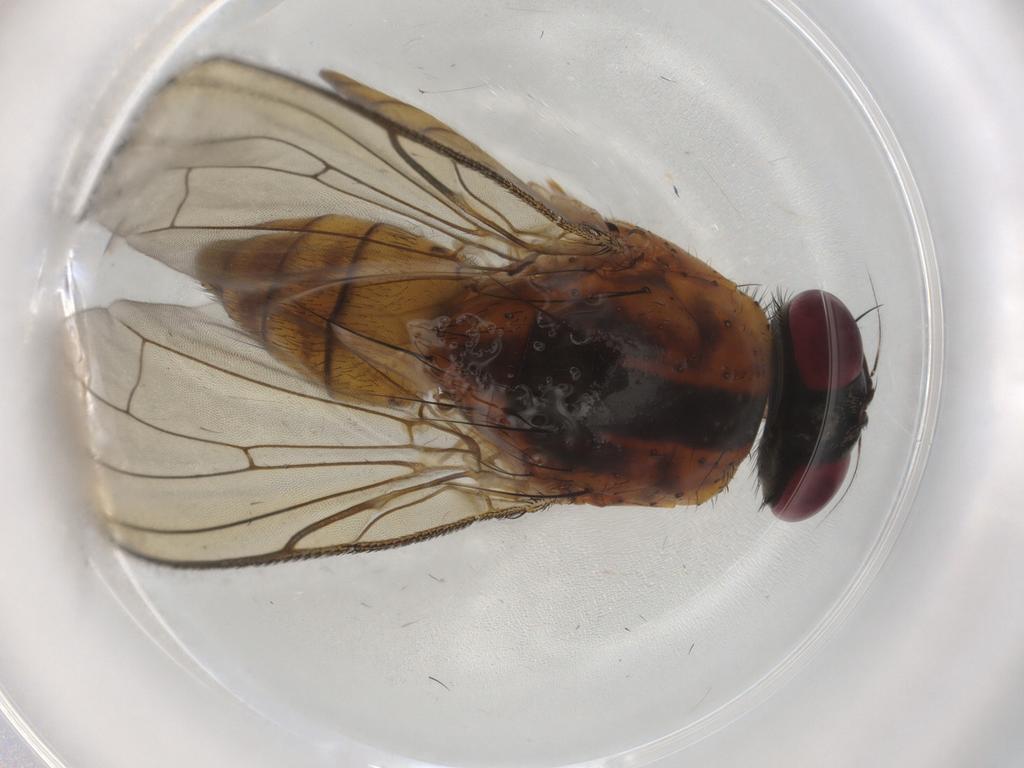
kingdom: Animalia
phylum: Arthropoda
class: Insecta
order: Diptera
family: Anthomyiidae
